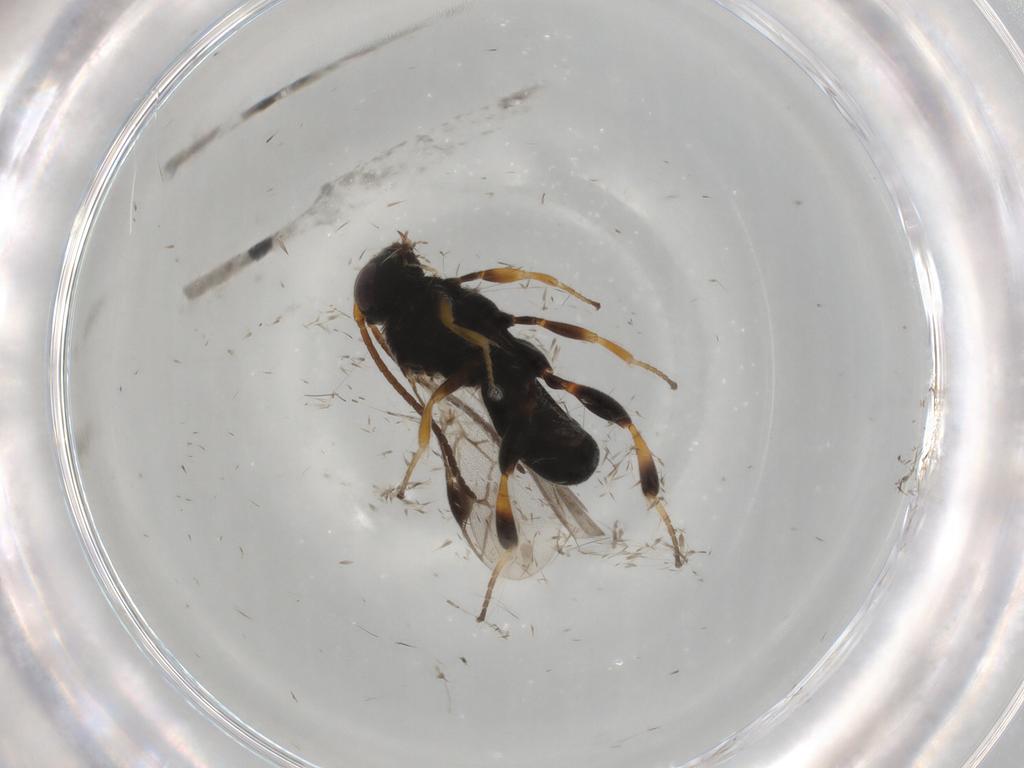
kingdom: Animalia
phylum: Arthropoda
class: Insecta
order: Hymenoptera
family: Braconidae
